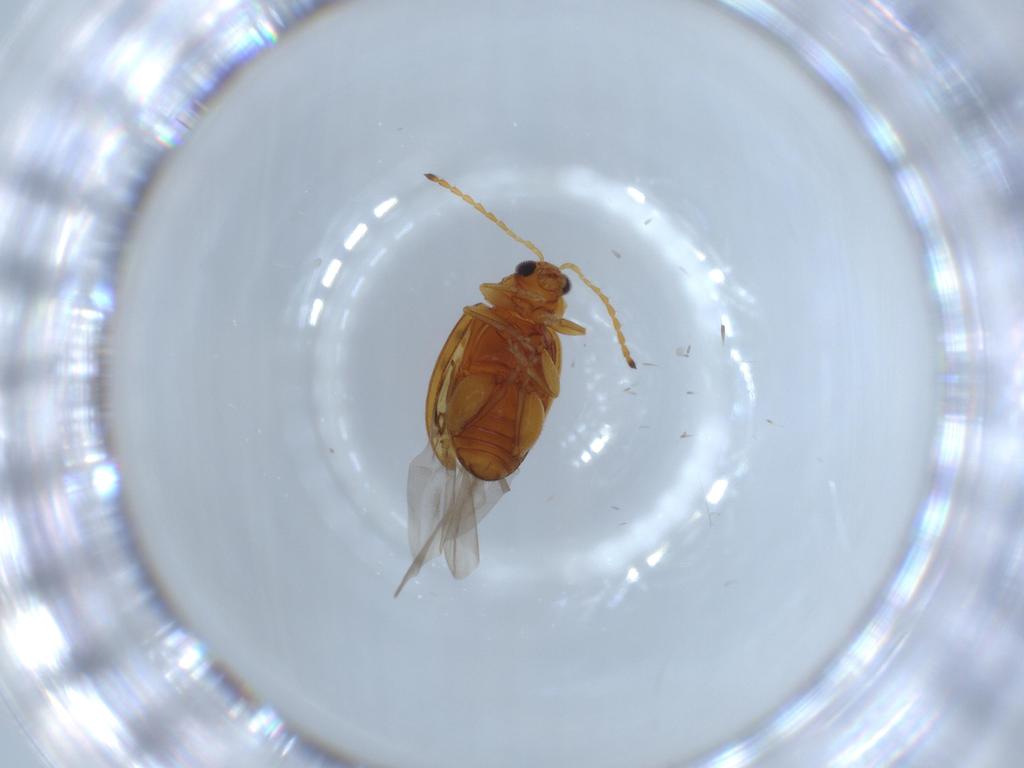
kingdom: Animalia
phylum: Arthropoda
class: Insecta
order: Coleoptera
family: Chrysomelidae
